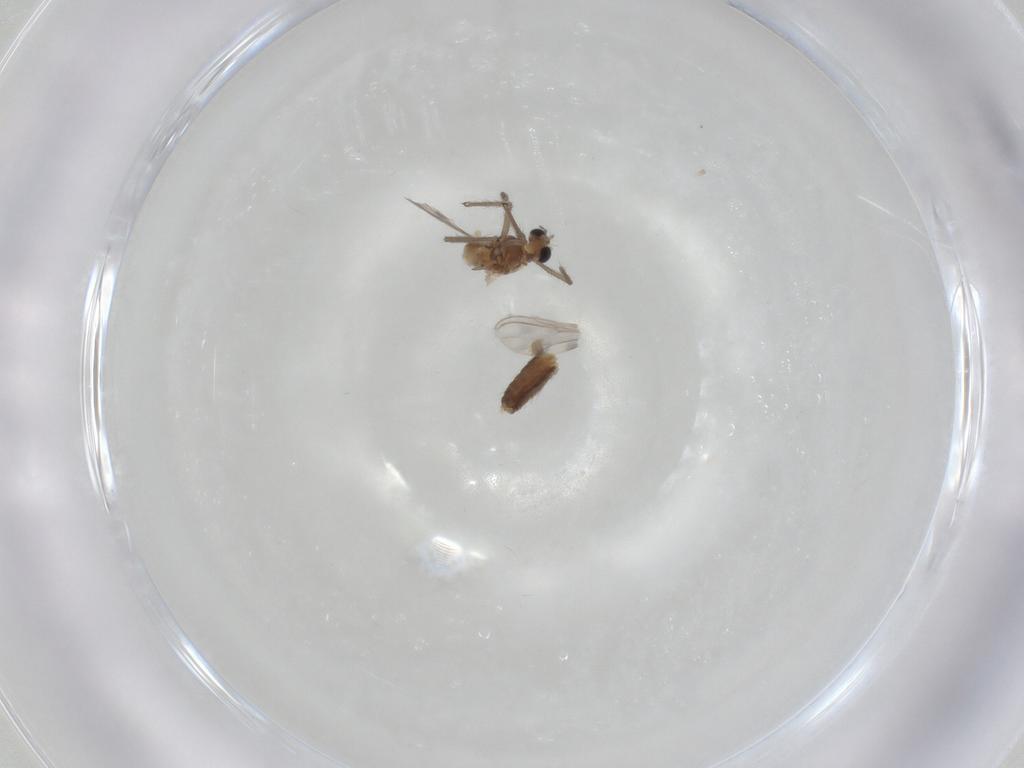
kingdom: Animalia
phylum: Arthropoda
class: Insecta
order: Diptera
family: Chironomidae
